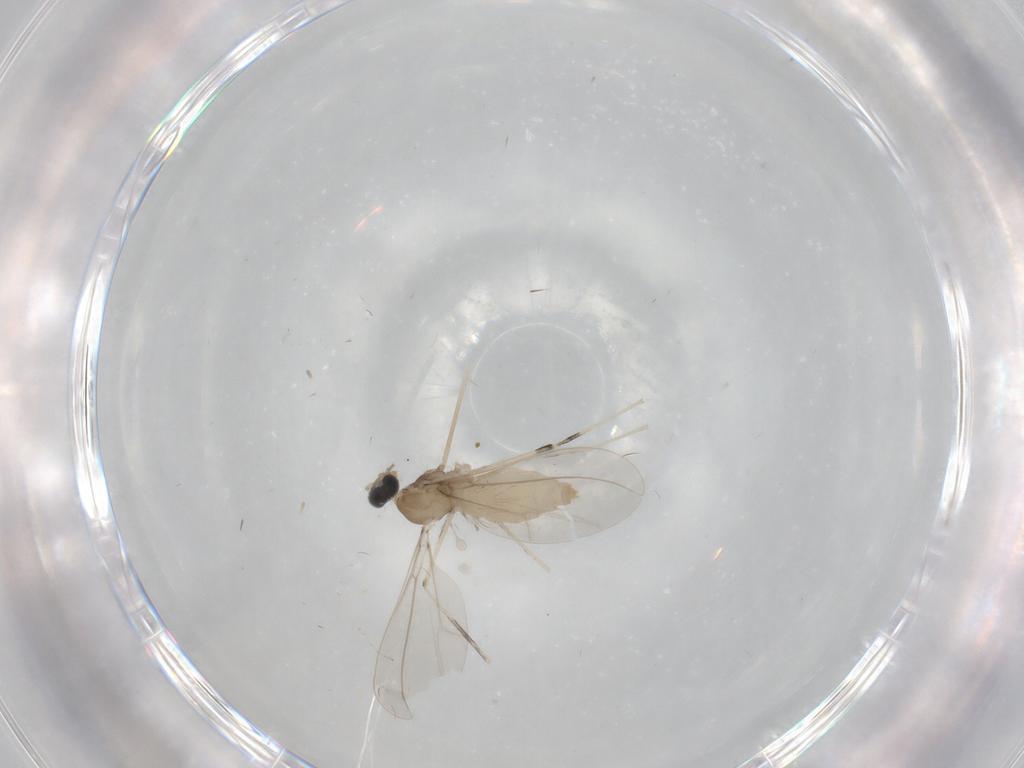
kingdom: Animalia
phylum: Arthropoda
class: Insecta
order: Diptera
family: Cecidomyiidae
